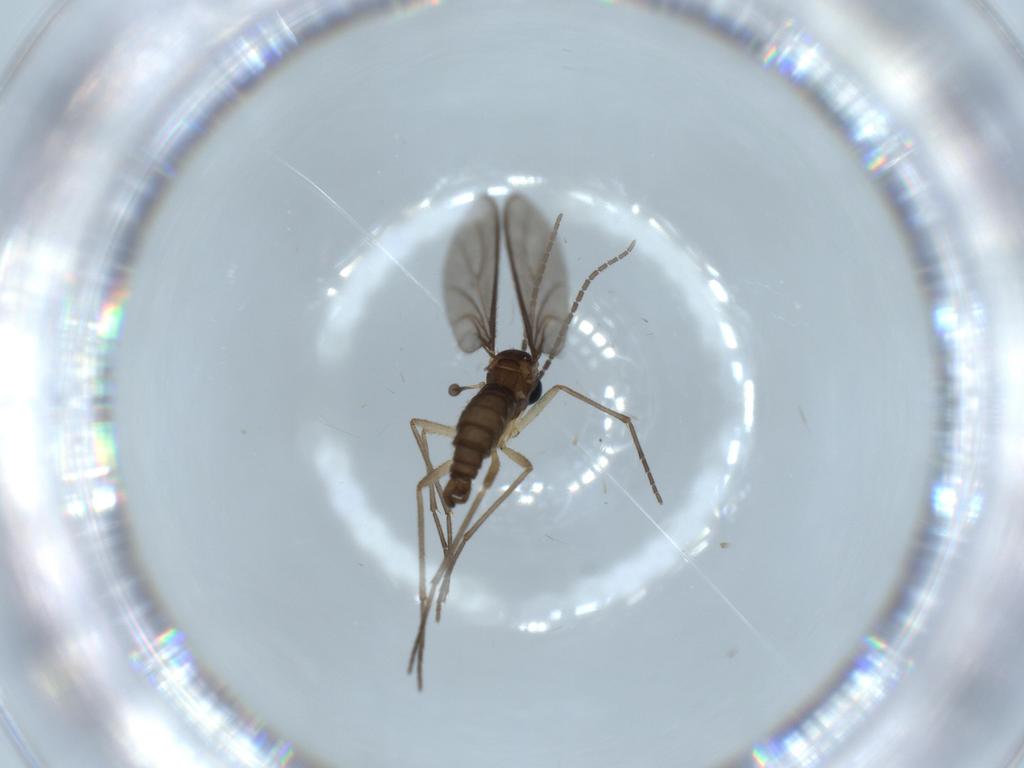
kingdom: Animalia
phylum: Arthropoda
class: Insecta
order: Diptera
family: Sciaridae
